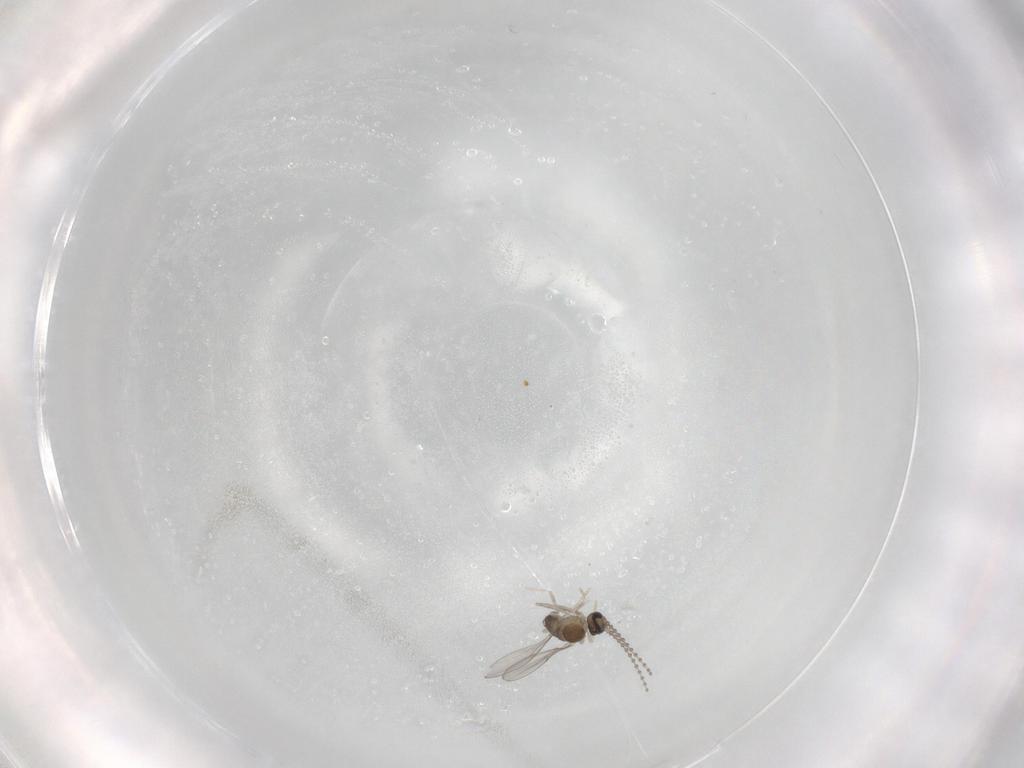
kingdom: Animalia
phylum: Arthropoda
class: Insecta
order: Diptera
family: Cecidomyiidae
